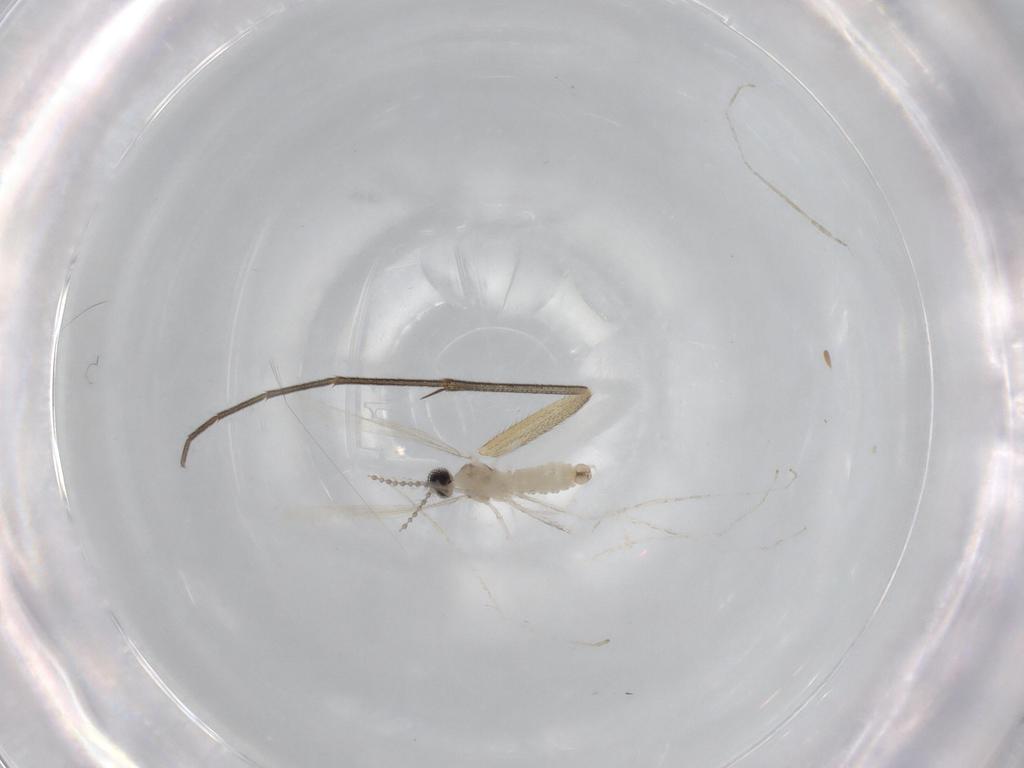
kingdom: Animalia
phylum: Arthropoda
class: Insecta
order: Diptera
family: Cecidomyiidae
